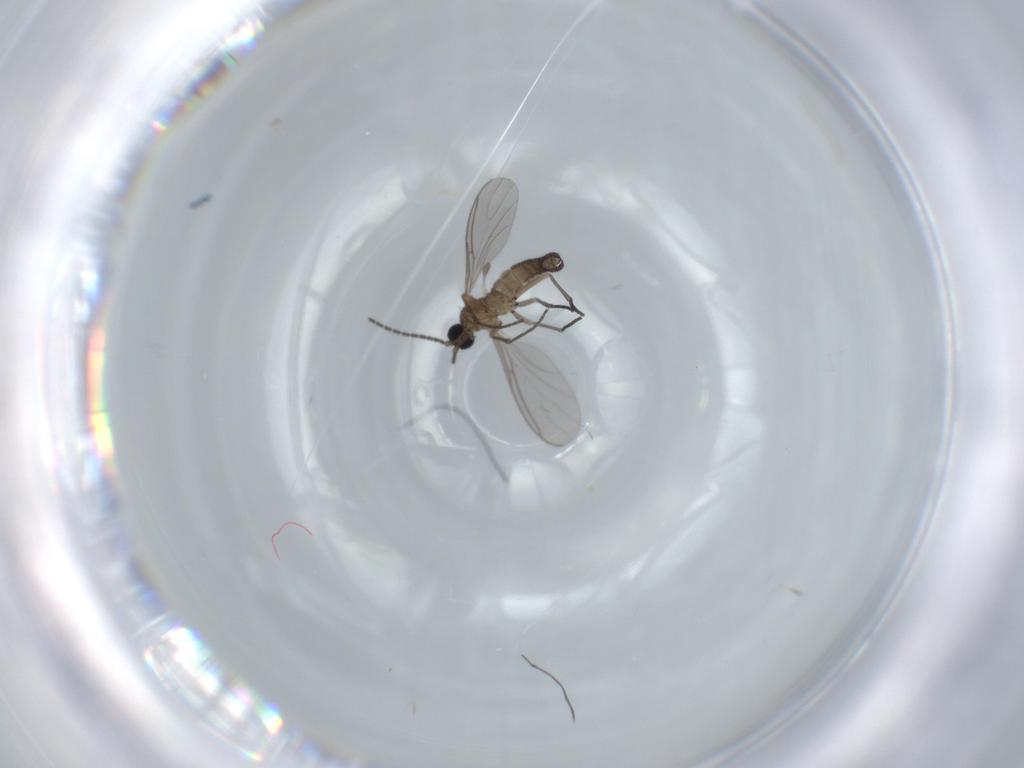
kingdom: Animalia
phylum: Arthropoda
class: Insecta
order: Diptera
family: Sciaridae
